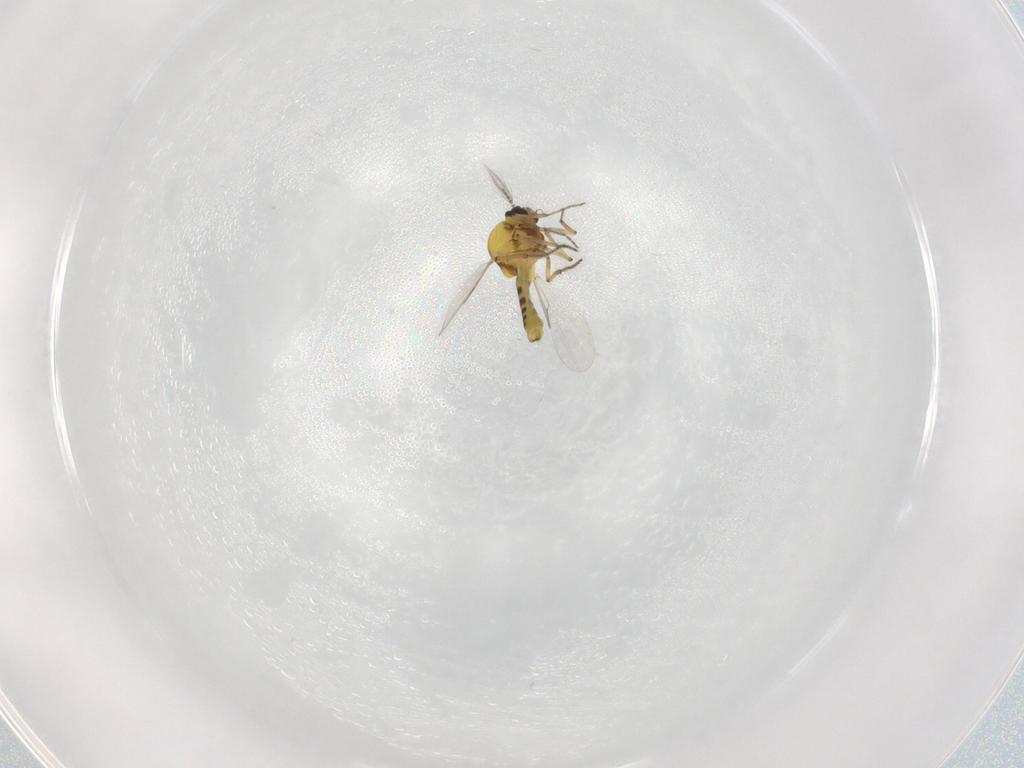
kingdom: Animalia
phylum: Arthropoda
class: Insecta
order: Diptera
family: Ceratopogonidae
